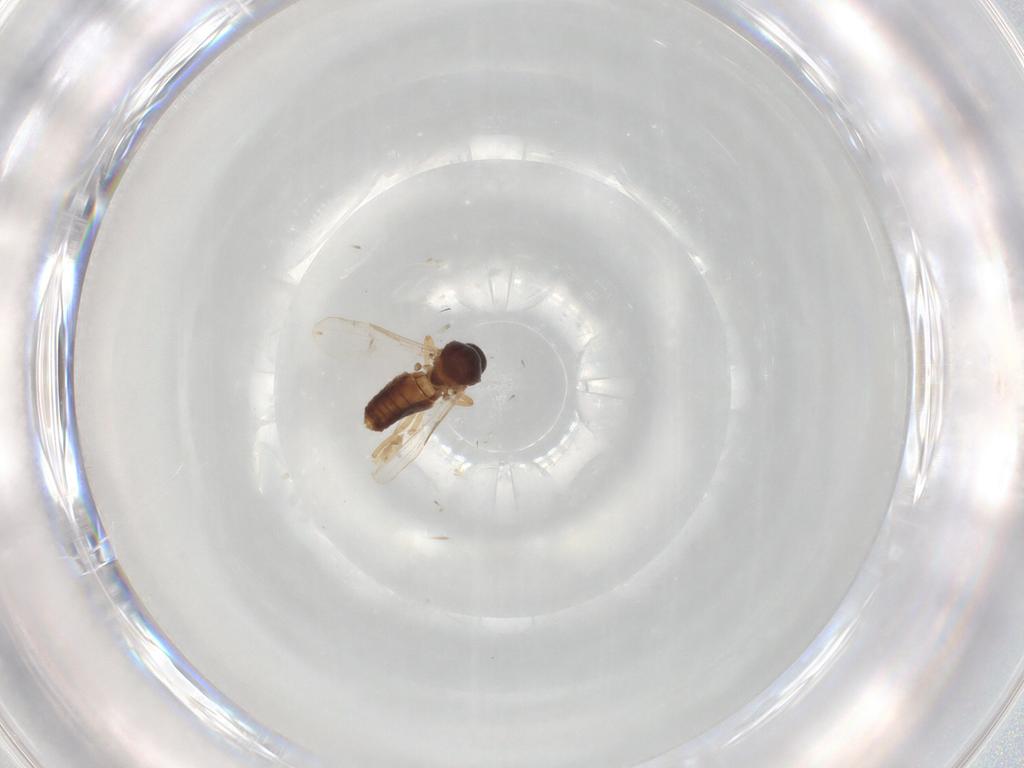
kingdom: Animalia
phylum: Arthropoda
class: Insecta
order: Diptera
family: Ceratopogonidae
